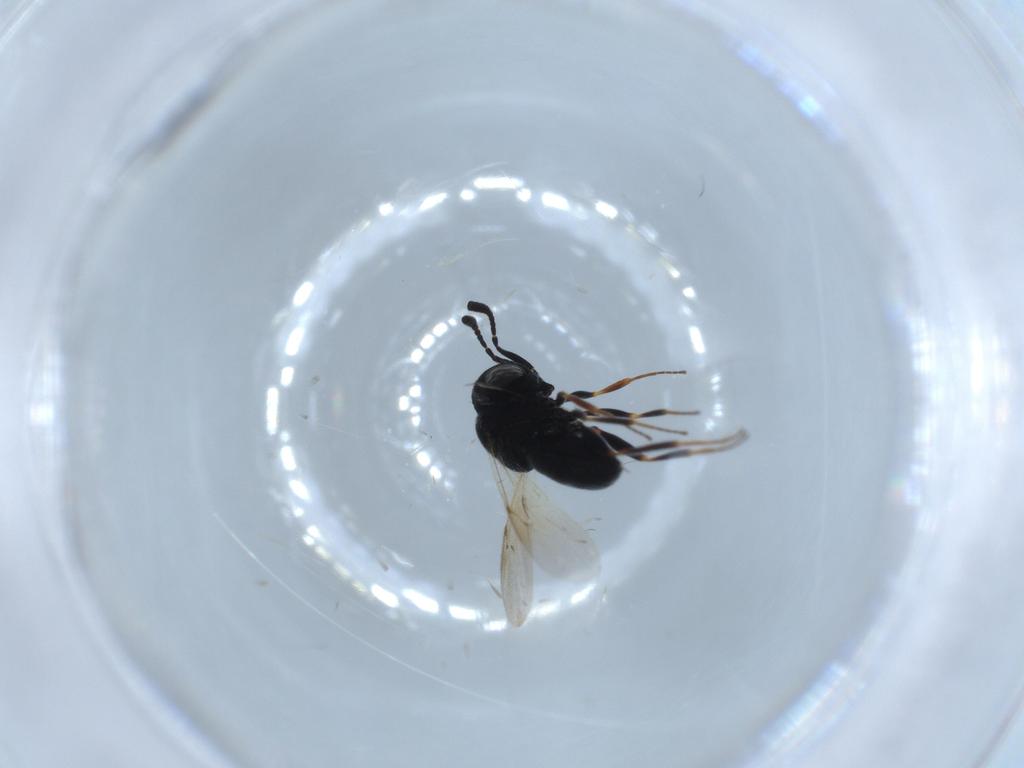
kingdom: Animalia
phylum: Arthropoda
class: Insecta
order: Hymenoptera
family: Scelionidae
